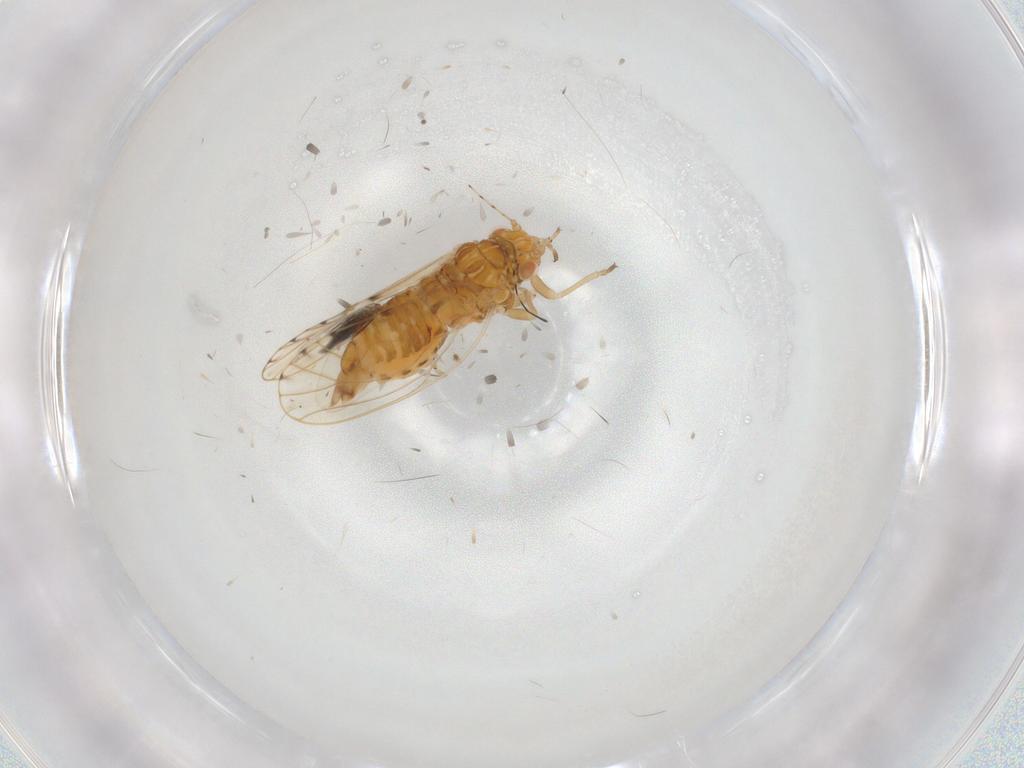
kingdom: Animalia
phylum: Arthropoda
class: Insecta
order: Hemiptera
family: Psylloidea_incertae_sedis
